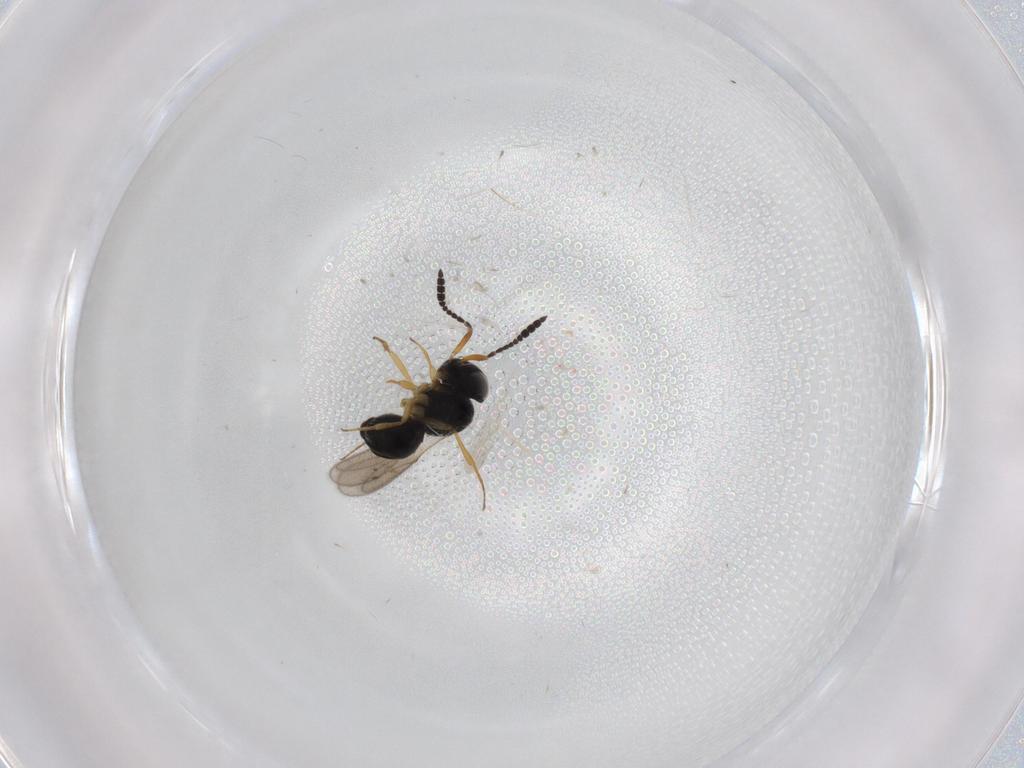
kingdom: Animalia
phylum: Arthropoda
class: Insecta
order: Hymenoptera
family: Scelionidae
